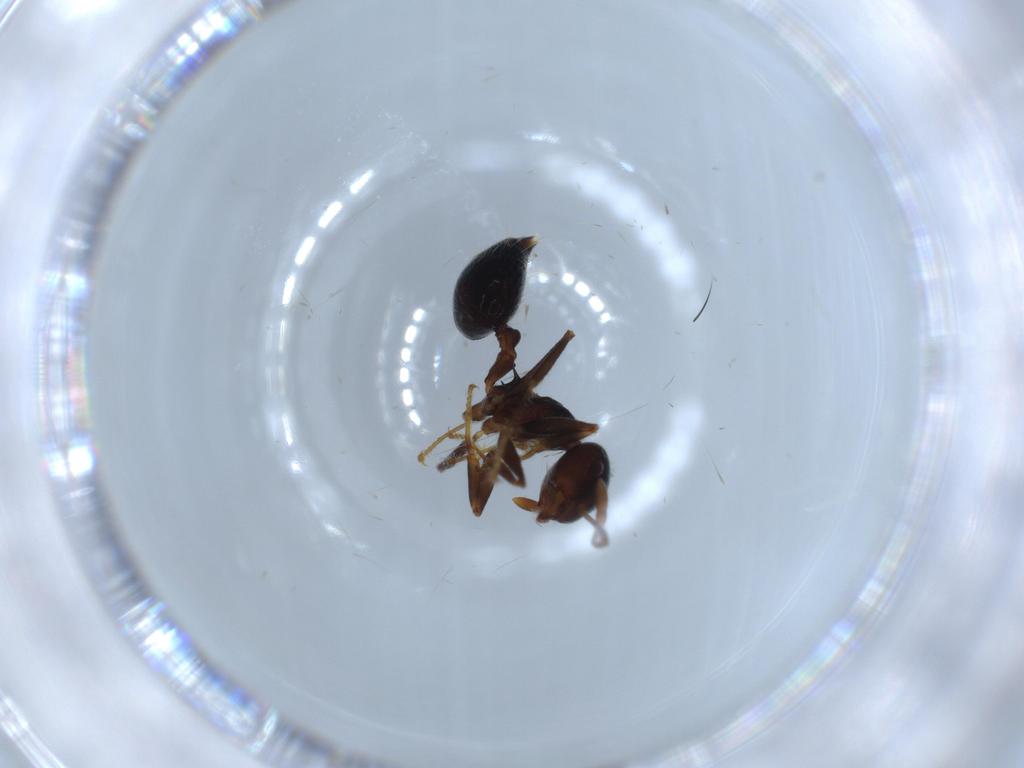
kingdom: Animalia
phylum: Arthropoda
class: Insecta
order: Hymenoptera
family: Formicidae
